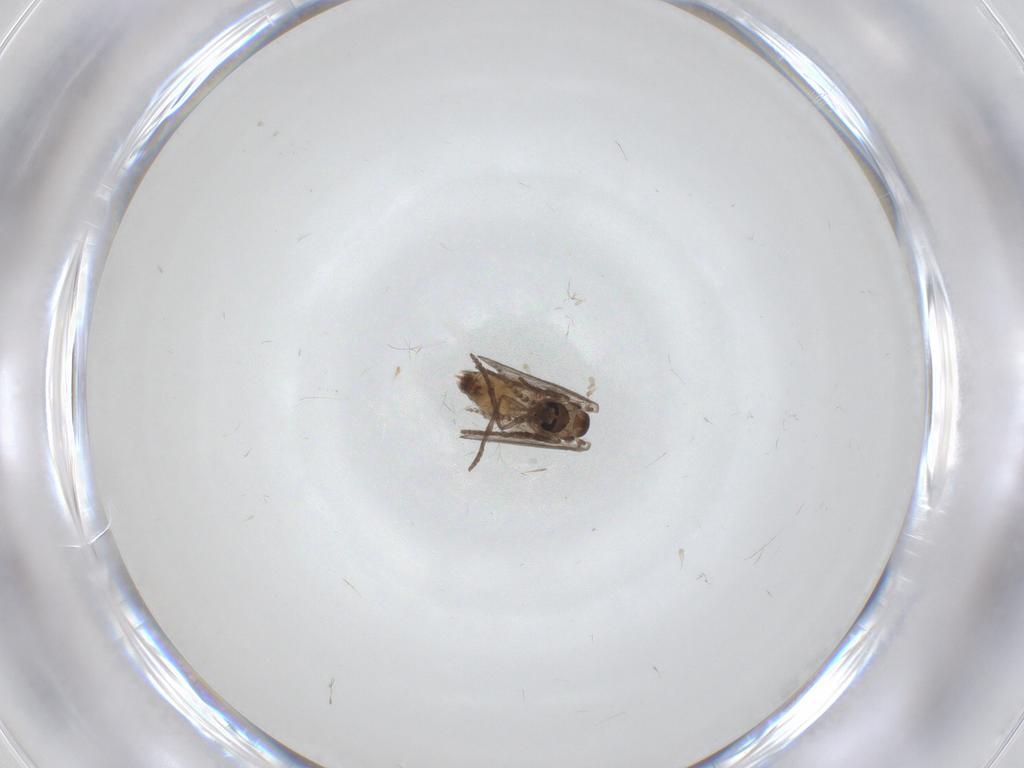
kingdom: Animalia
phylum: Arthropoda
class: Insecta
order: Diptera
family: Psychodidae
